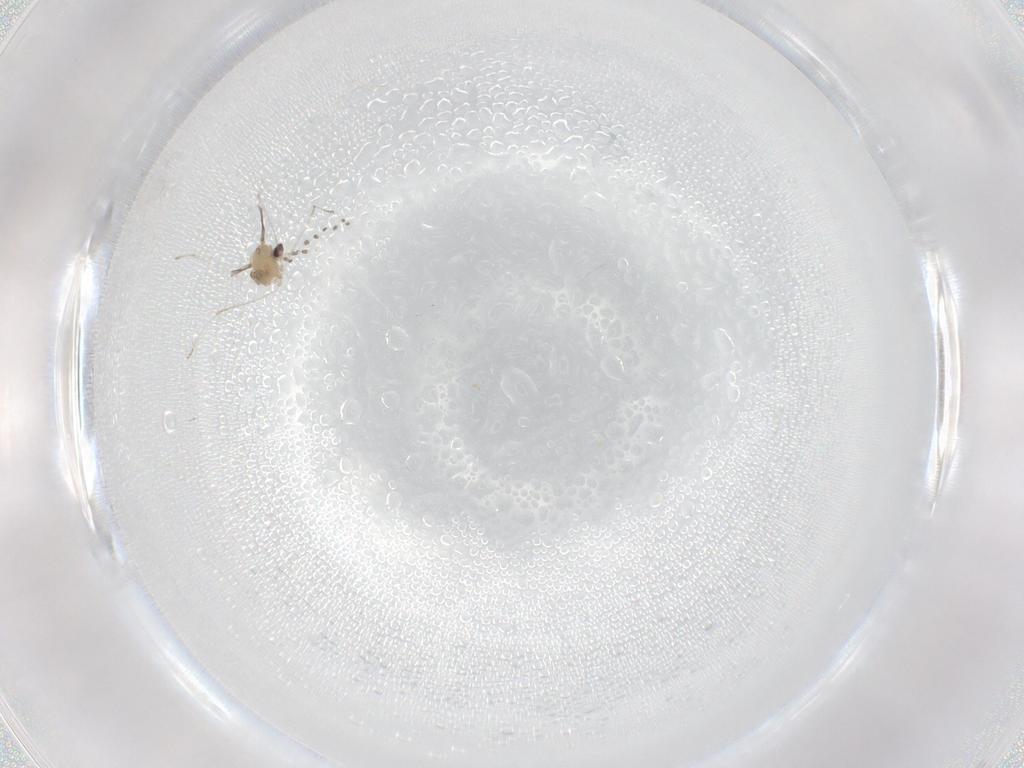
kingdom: Animalia
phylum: Arthropoda
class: Insecta
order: Diptera
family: Cecidomyiidae
